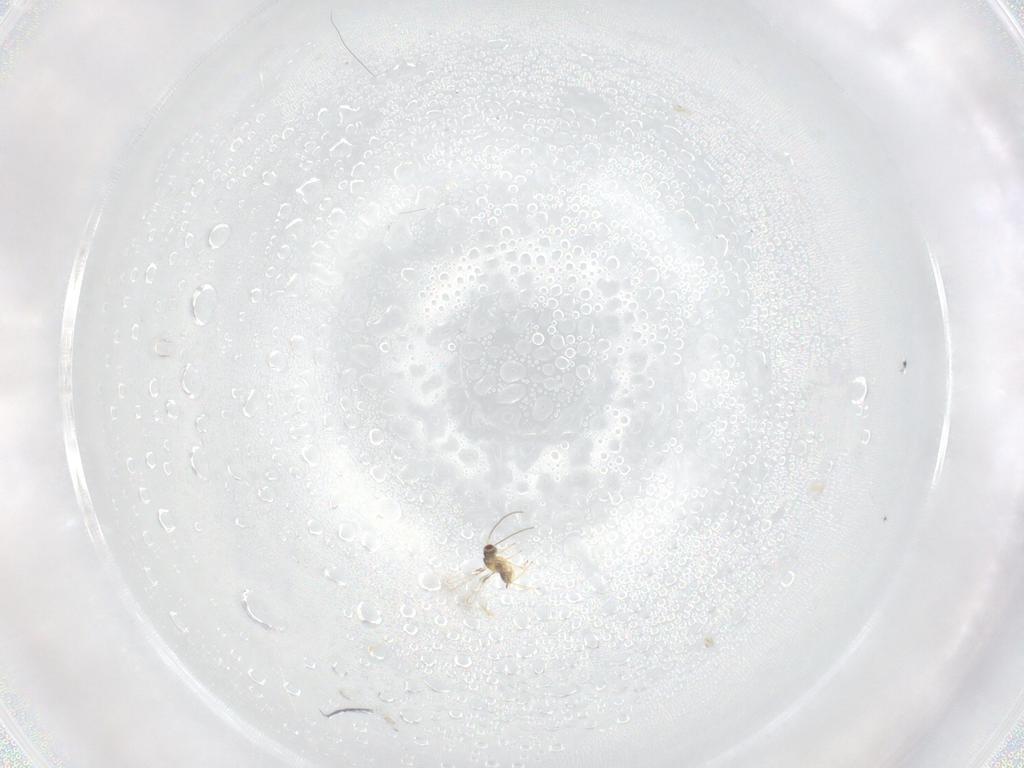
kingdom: Animalia
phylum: Arthropoda
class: Insecta
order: Hymenoptera
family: Mymaridae
